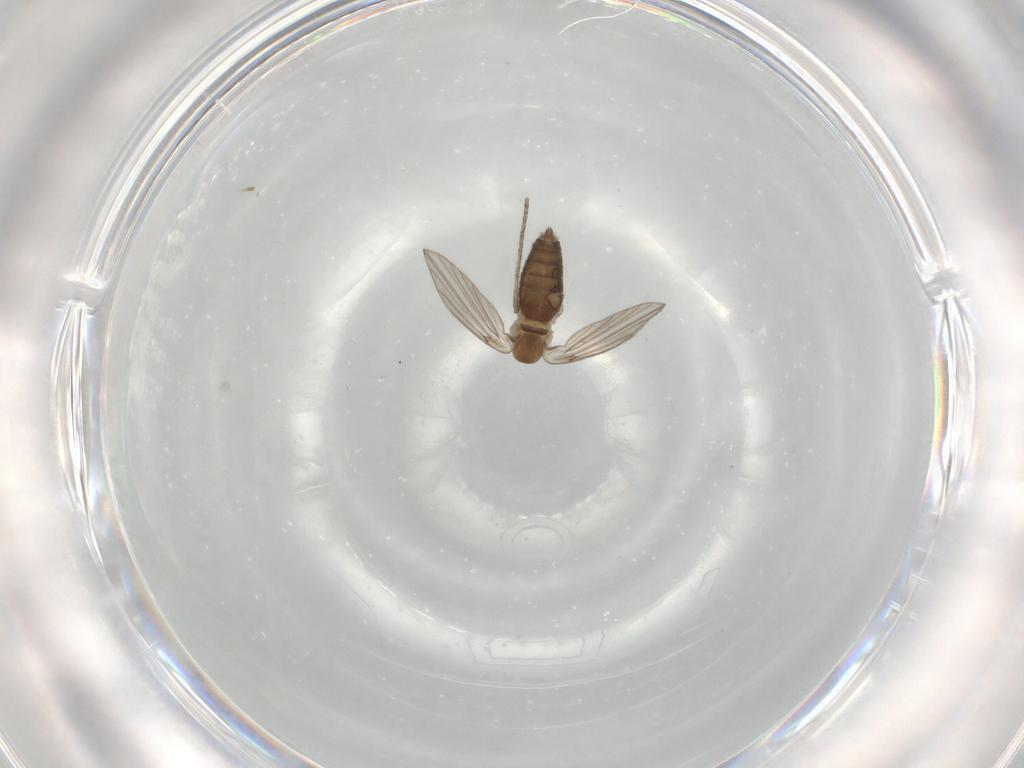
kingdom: Animalia
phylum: Arthropoda
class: Insecta
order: Diptera
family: Psychodidae
